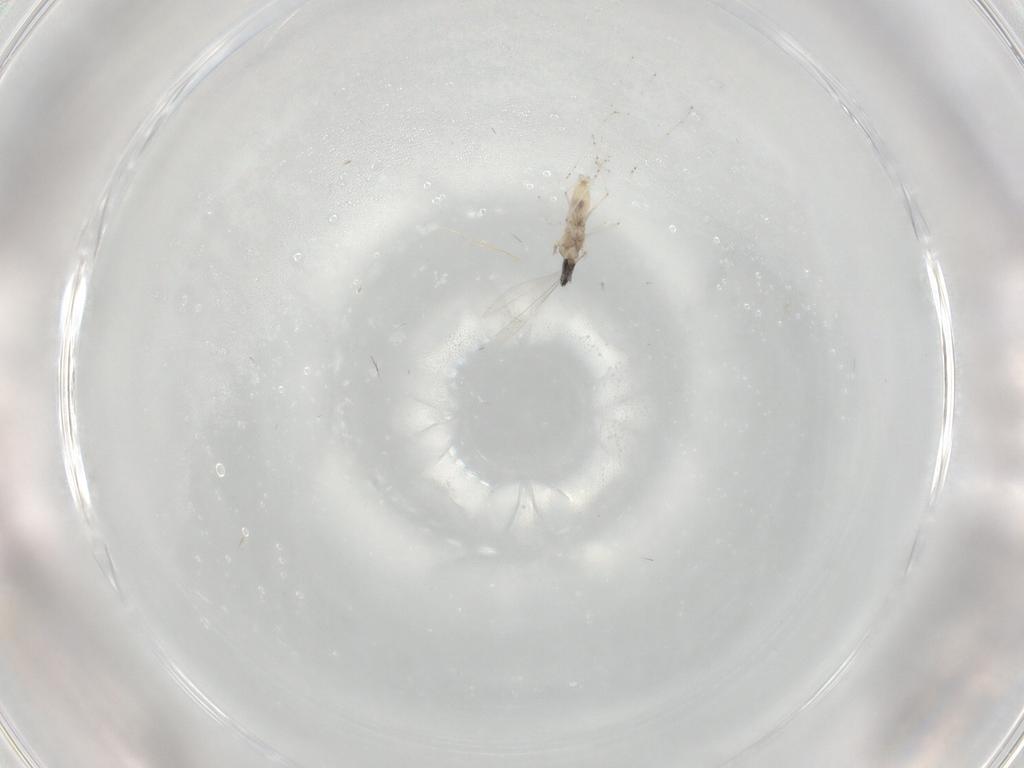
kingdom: Animalia
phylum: Arthropoda
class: Insecta
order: Diptera
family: Cecidomyiidae
